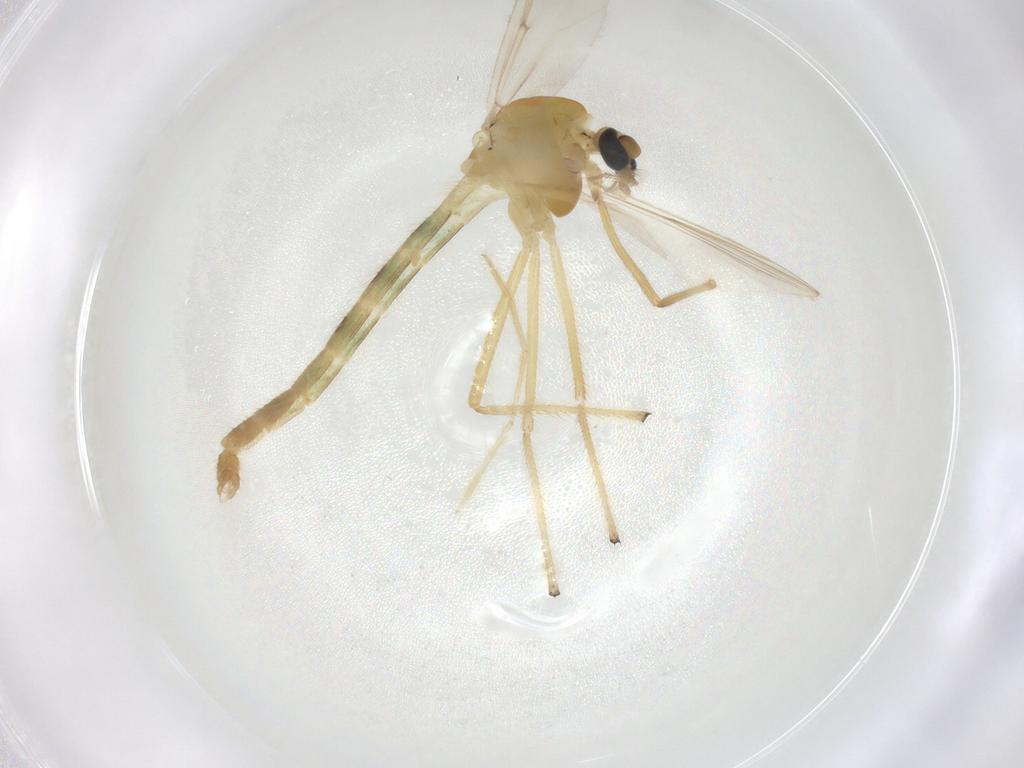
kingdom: Animalia
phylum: Arthropoda
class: Insecta
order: Diptera
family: Chironomidae
